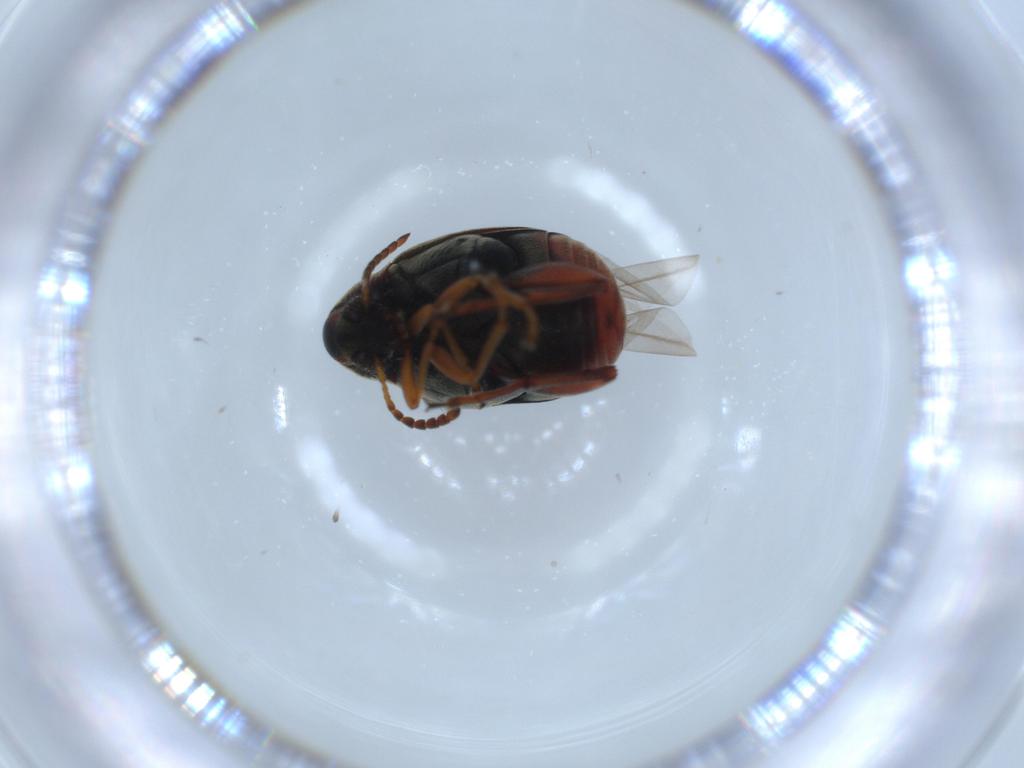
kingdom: Animalia
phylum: Arthropoda
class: Insecta
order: Coleoptera
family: Chrysomelidae
